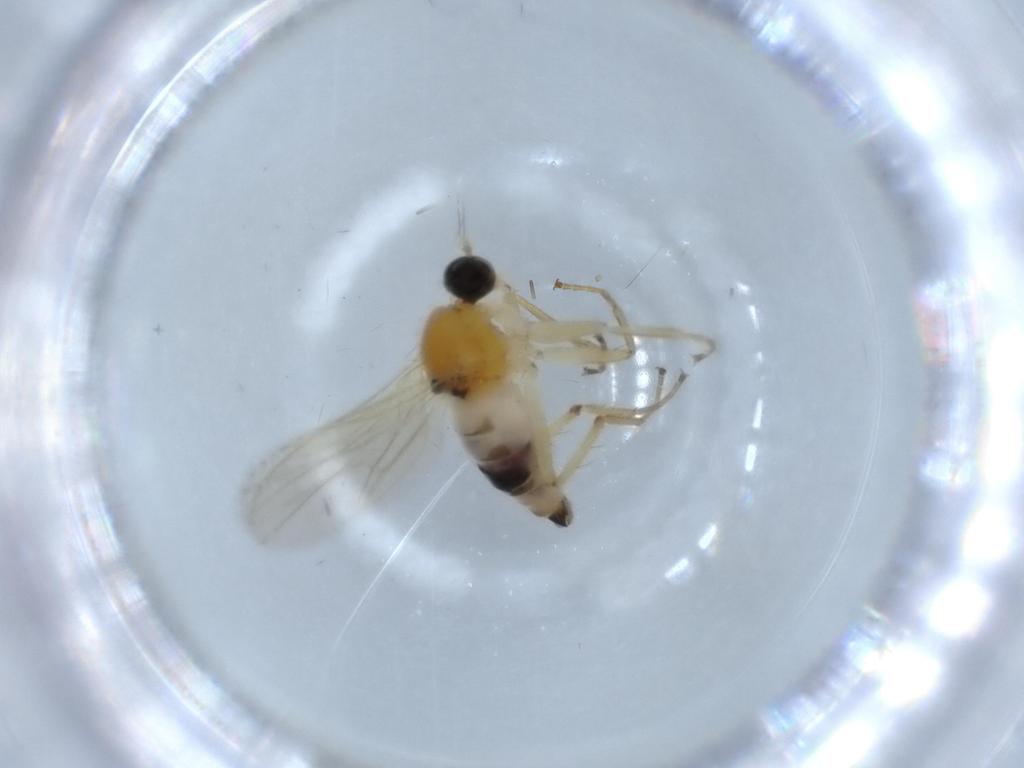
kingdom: Animalia
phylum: Arthropoda
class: Insecta
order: Diptera
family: Hybotidae
